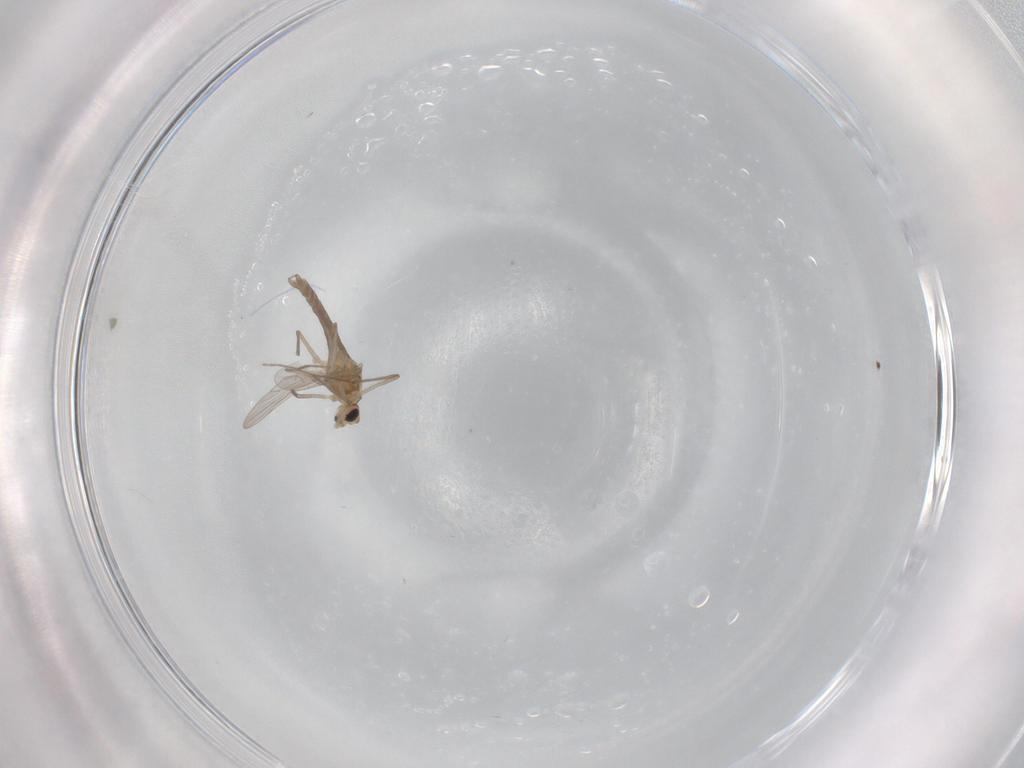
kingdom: Animalia
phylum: Arthropoda
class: Insecta
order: Diptera
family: Chironomidae
